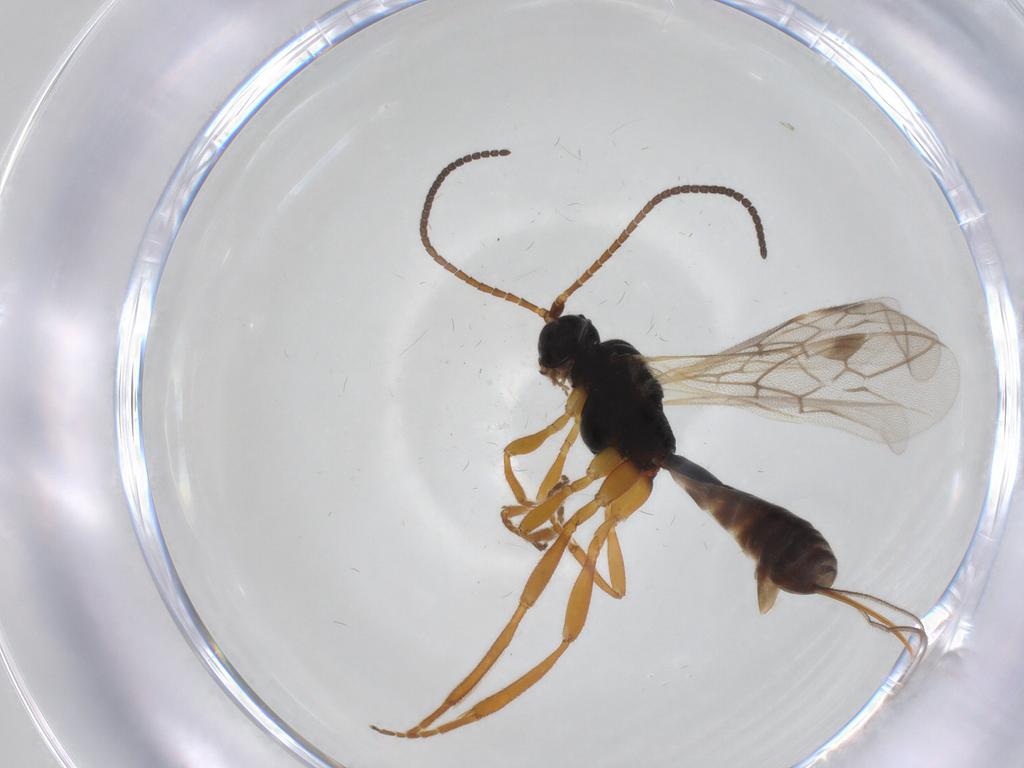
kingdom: Animalia
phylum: Arthropoda
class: Insecta
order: Hymenoptera
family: Braconidae
